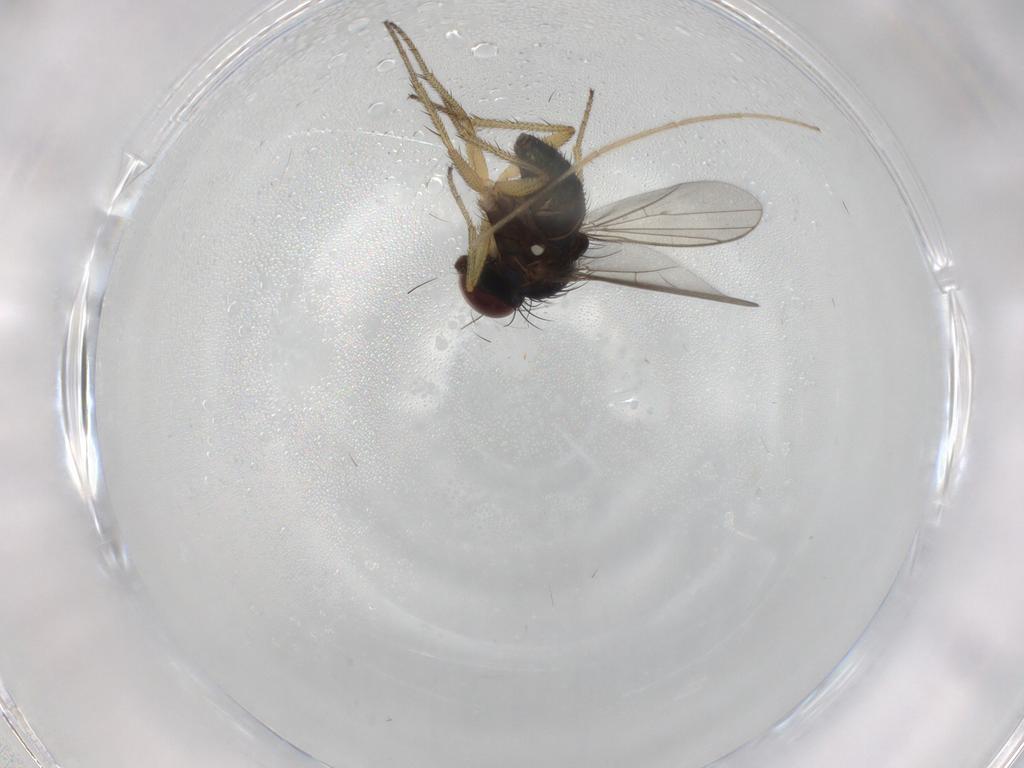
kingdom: Animalia
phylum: Arthropoda
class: Insecta
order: Diptera
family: Chironomidae
